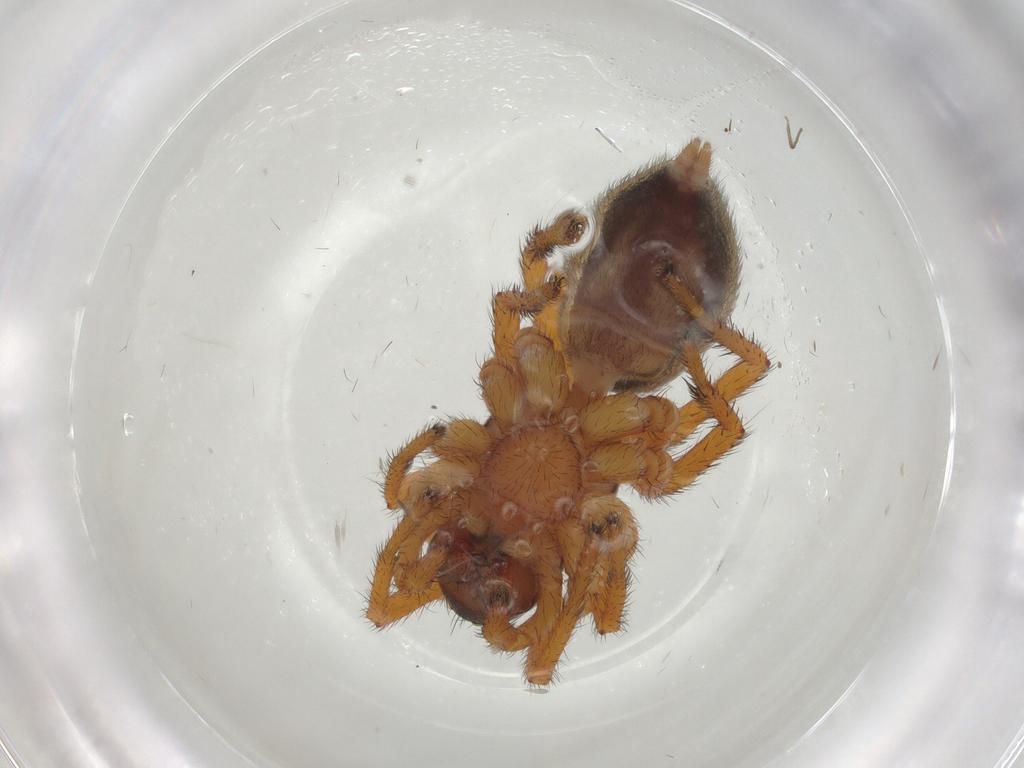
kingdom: Animalia
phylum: Arthropoda
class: Arachnida
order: Araneae
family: Zodariidae
